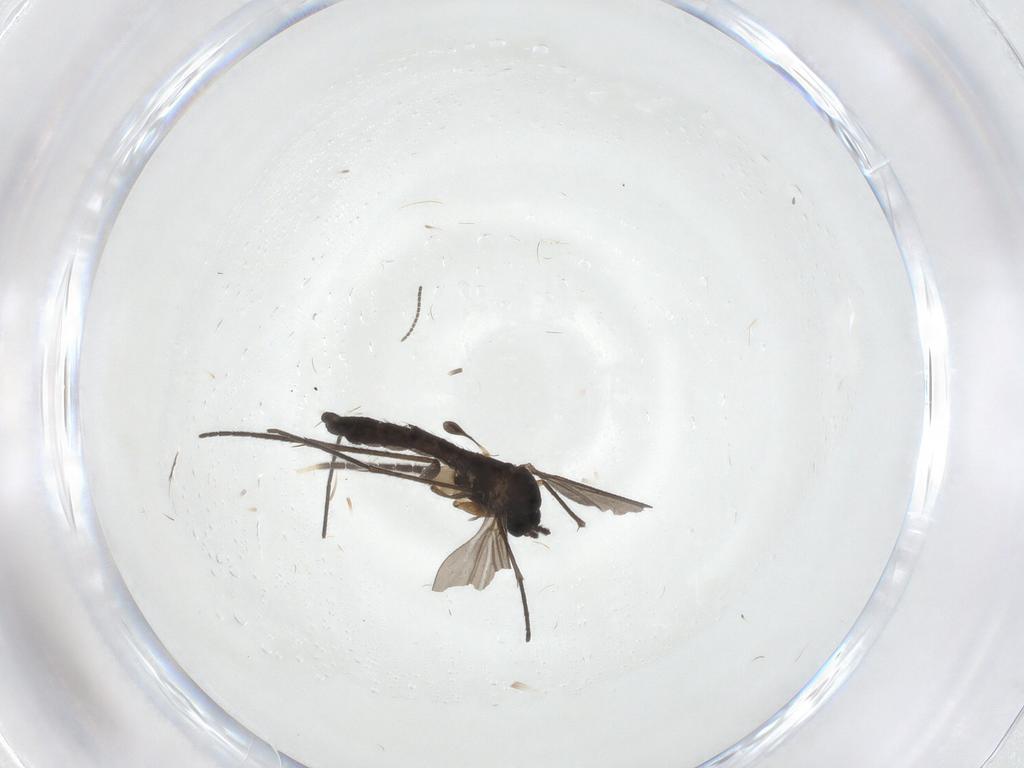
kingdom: Animalia
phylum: Arthropoda
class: Insecta
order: Diptera
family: Sciaridae
